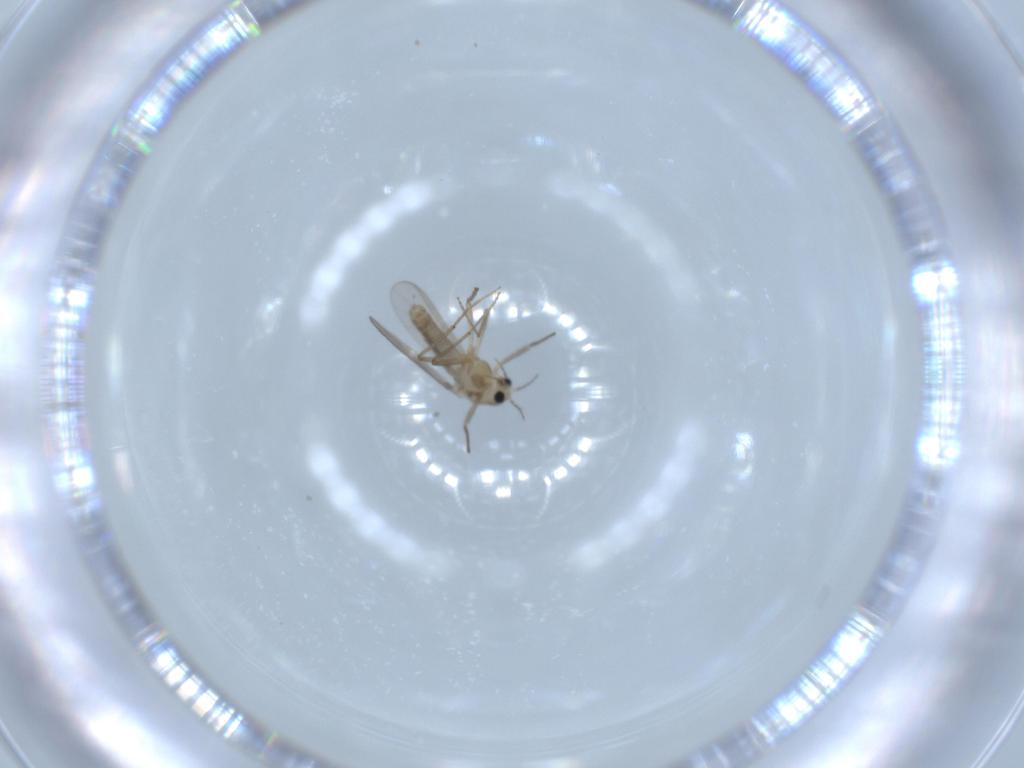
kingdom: Animalia
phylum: Arthropoda
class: Insecta
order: Diptera
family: Chironomidae
